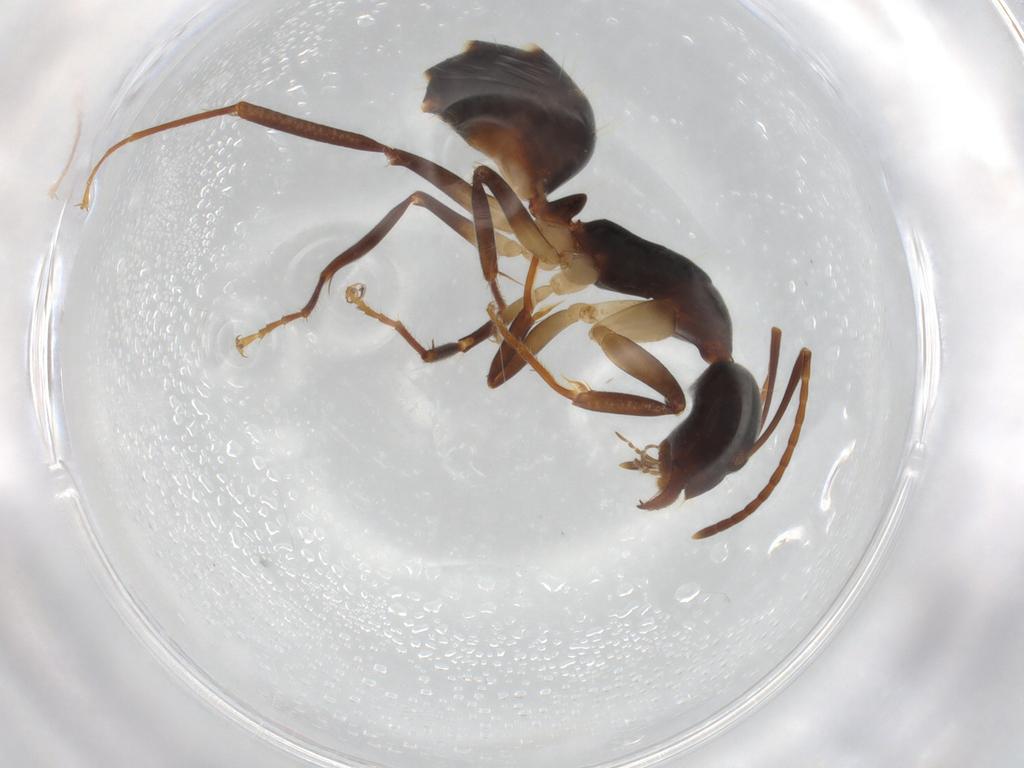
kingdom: Animalia
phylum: Arthropoda
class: Insecta
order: Hymenoptera
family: Formicidae
